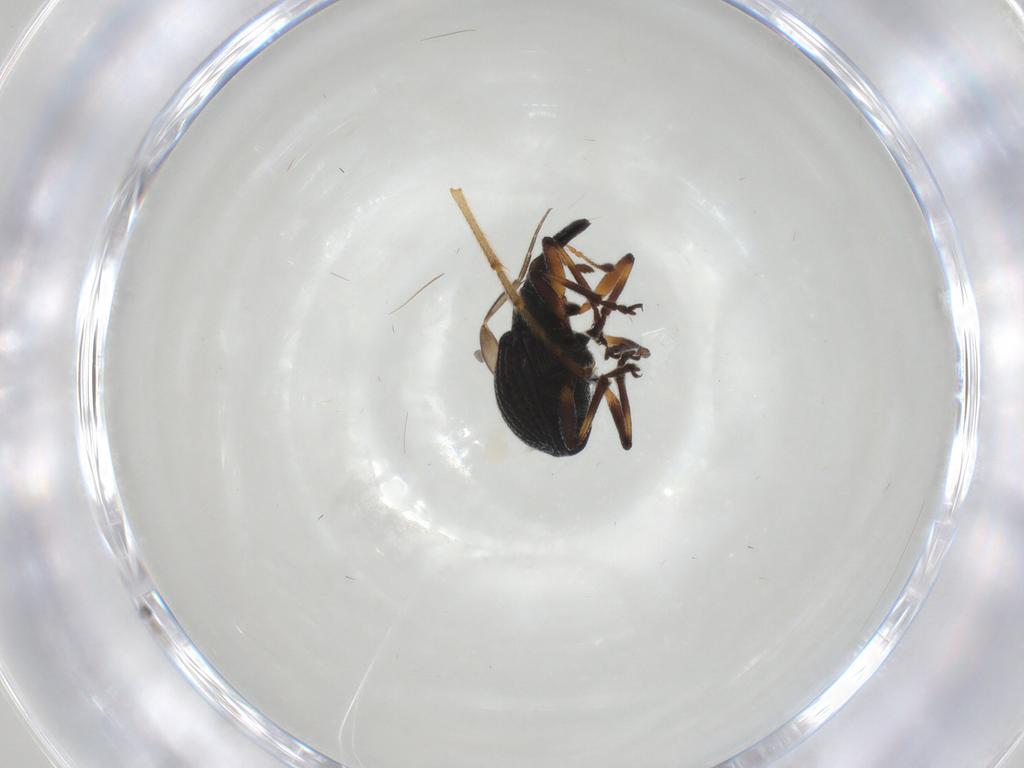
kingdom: Animalia
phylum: Arthropoda
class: Insecta
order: Coleoptera
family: Brentidae
